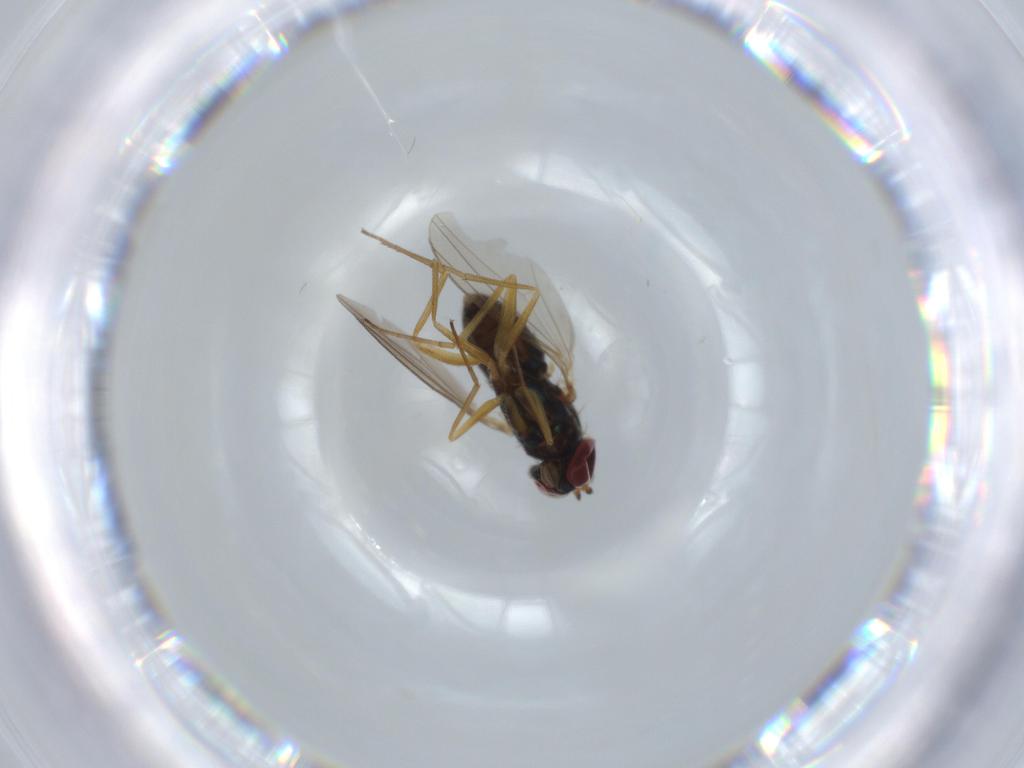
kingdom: Animalia
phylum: Arthropoda
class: Insecta
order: Diptera
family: Dolichopodidae
